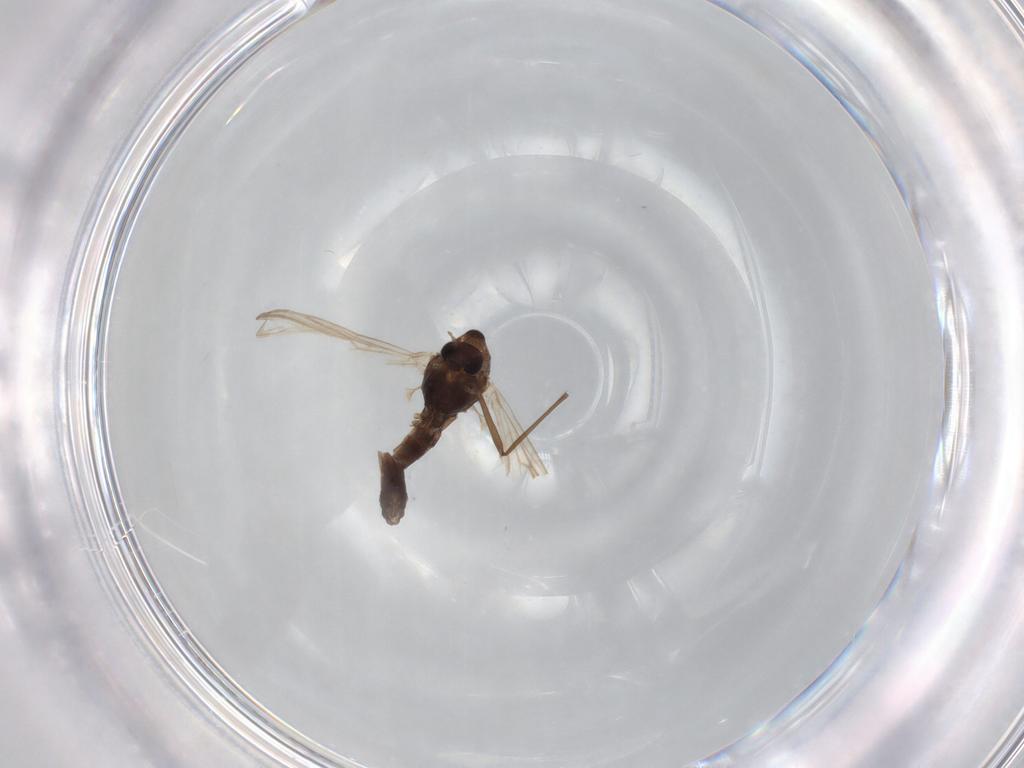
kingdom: Animalia
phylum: Arthropoda
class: Insecta
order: Diptera
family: Chironomidae
